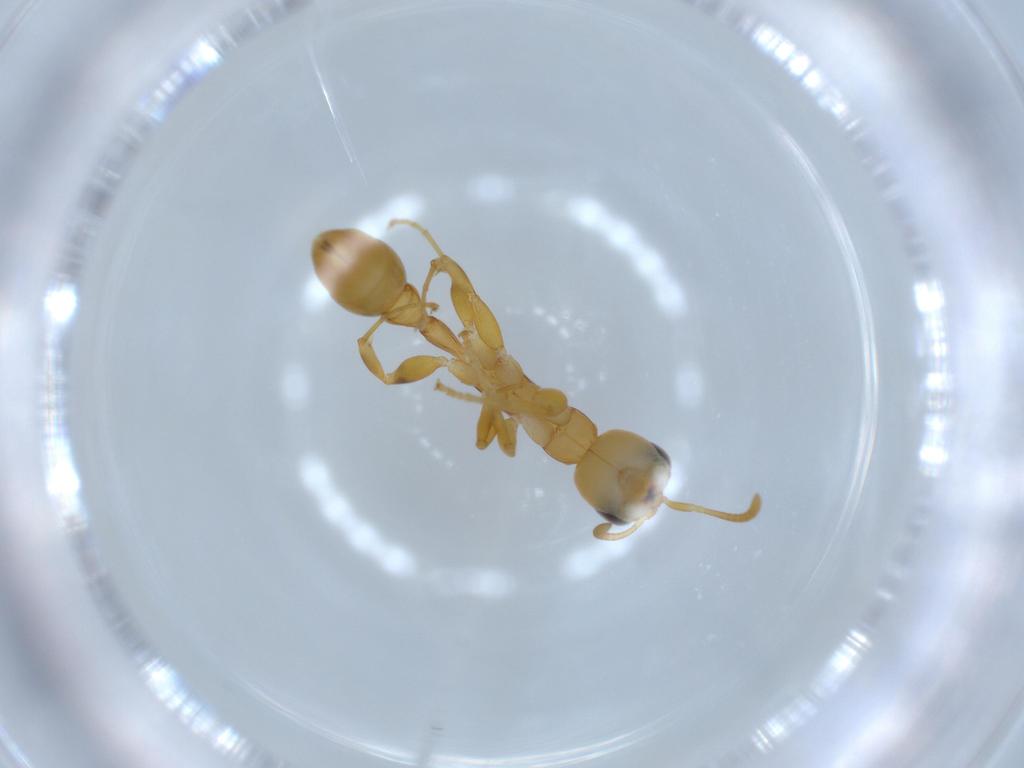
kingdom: Animalia
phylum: Arthropoda
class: Insecta
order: Hymenoptera
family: Formicidae
